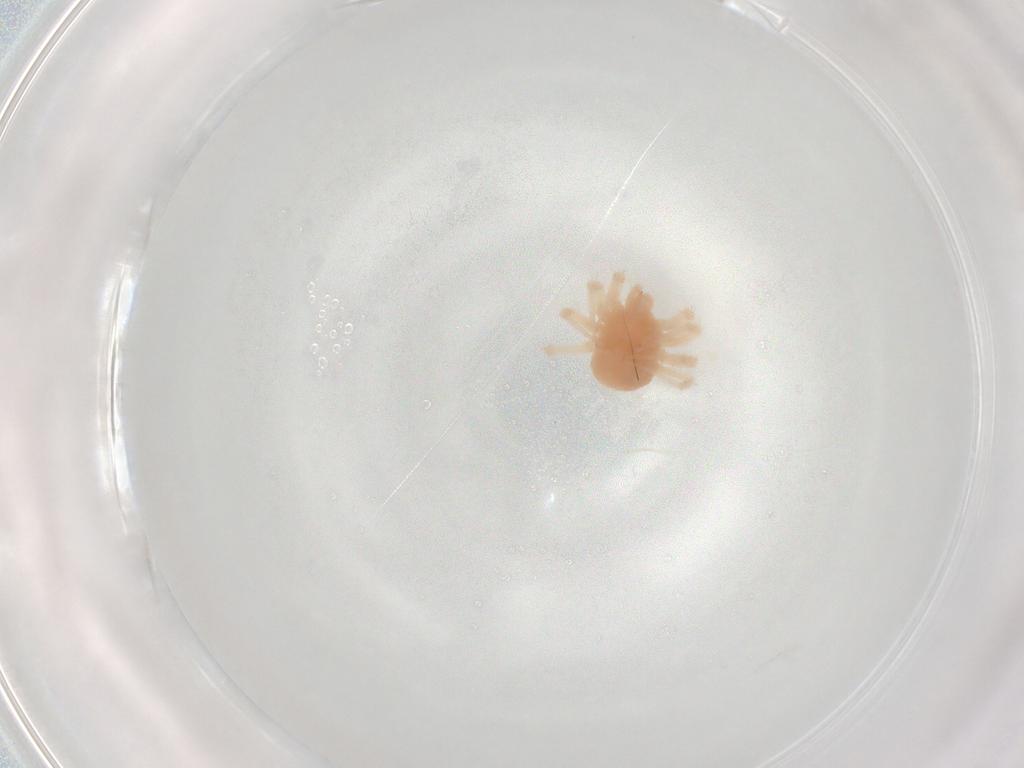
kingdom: Animalia
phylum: Arthropoda
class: Arachnida
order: Trombidiformes
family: Anystidae
